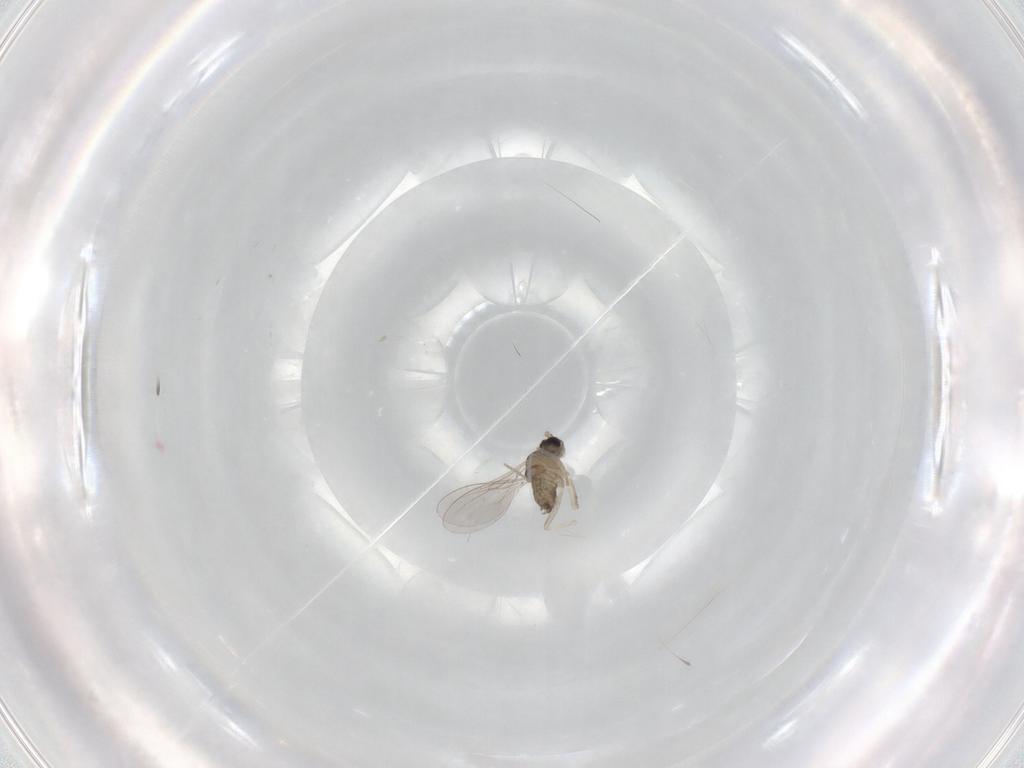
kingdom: Animalia
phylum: Arthropoda
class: Insecta
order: Diptera
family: Cecidomyiidae
